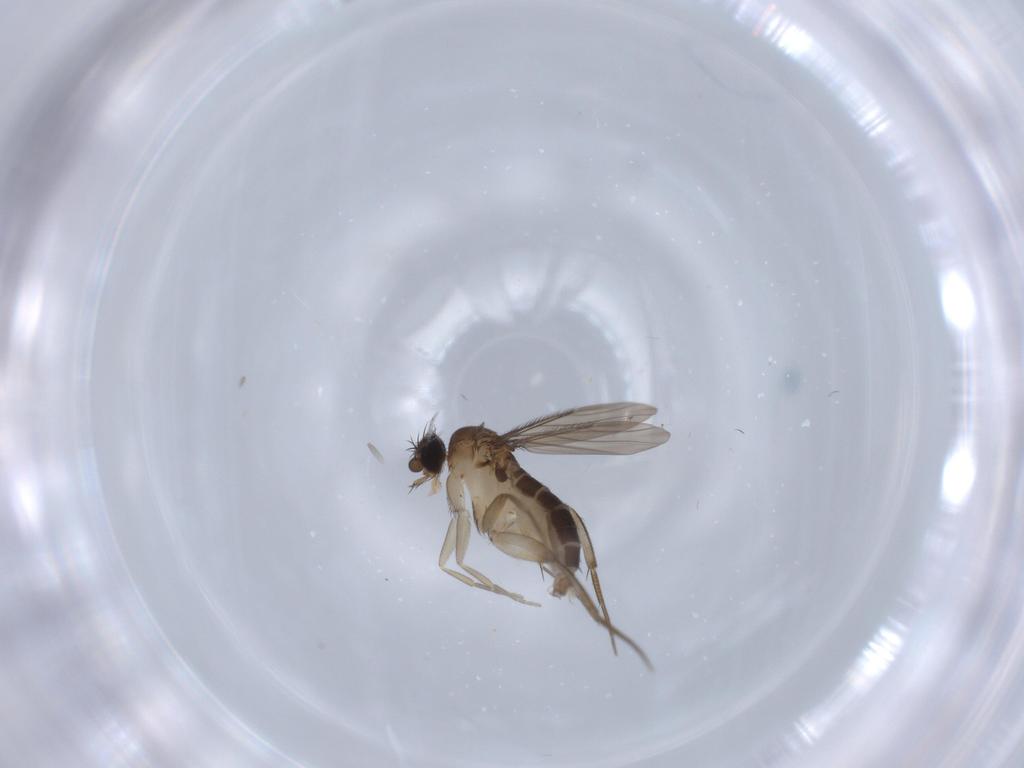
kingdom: Animalia
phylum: Arthropoda
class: Insecta
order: Diptera
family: Phoridae
